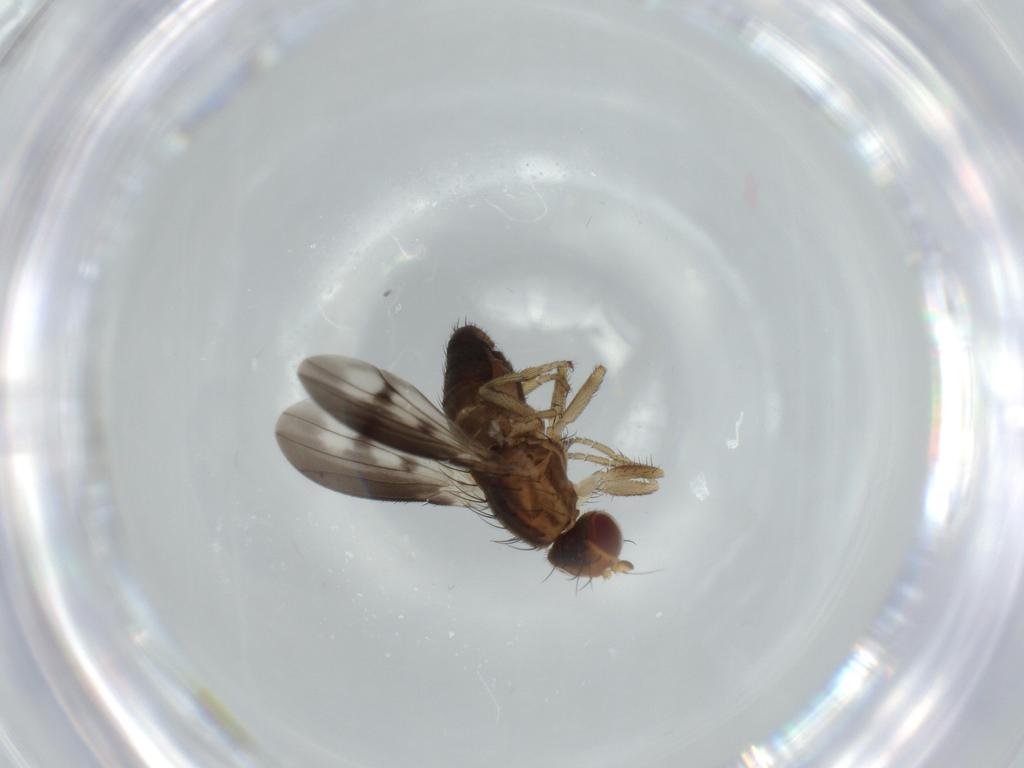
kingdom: Animalia
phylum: Arthropoda
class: Insecta
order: Diptera
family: Heleomyzidae
